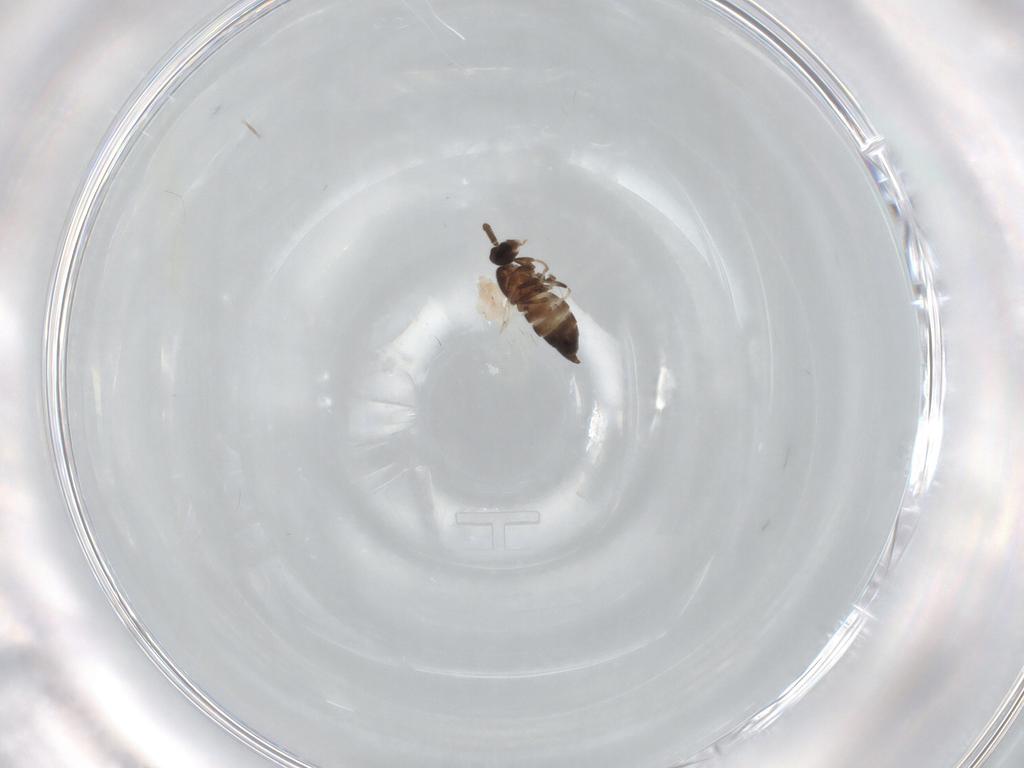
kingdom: Animalia
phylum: Arthropoda
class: Insecta
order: Diptera
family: Scatopsidae
